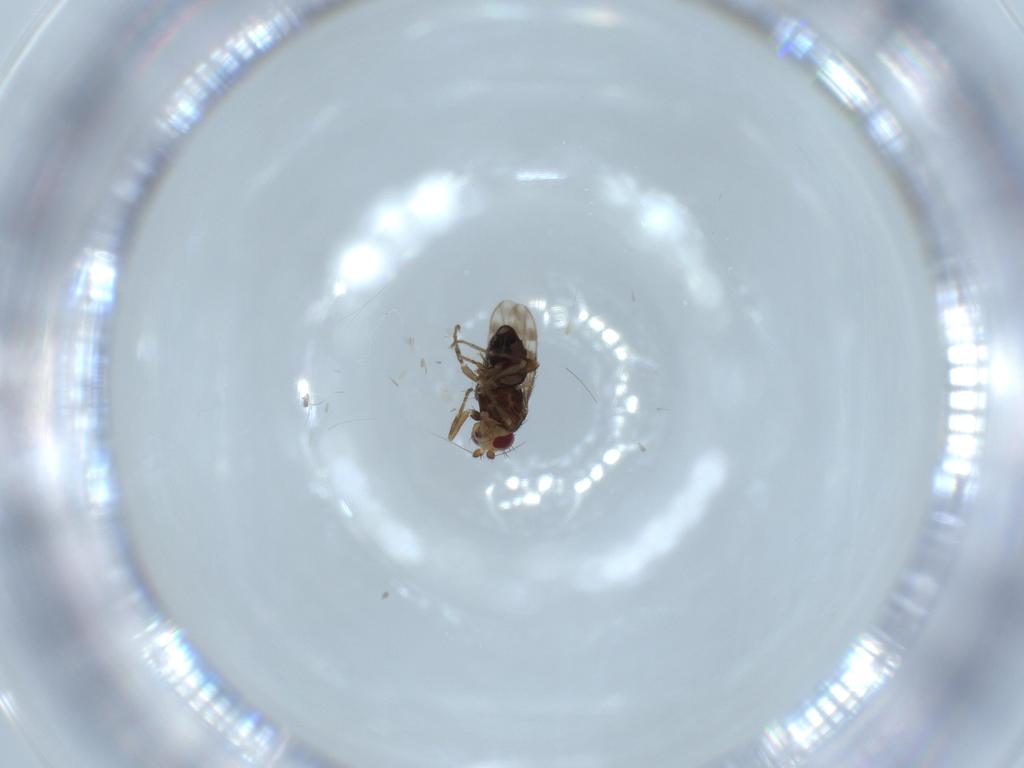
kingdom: Animalia
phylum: Arthropoda
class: Insecta
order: Diptera
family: Sphaeroceridae
